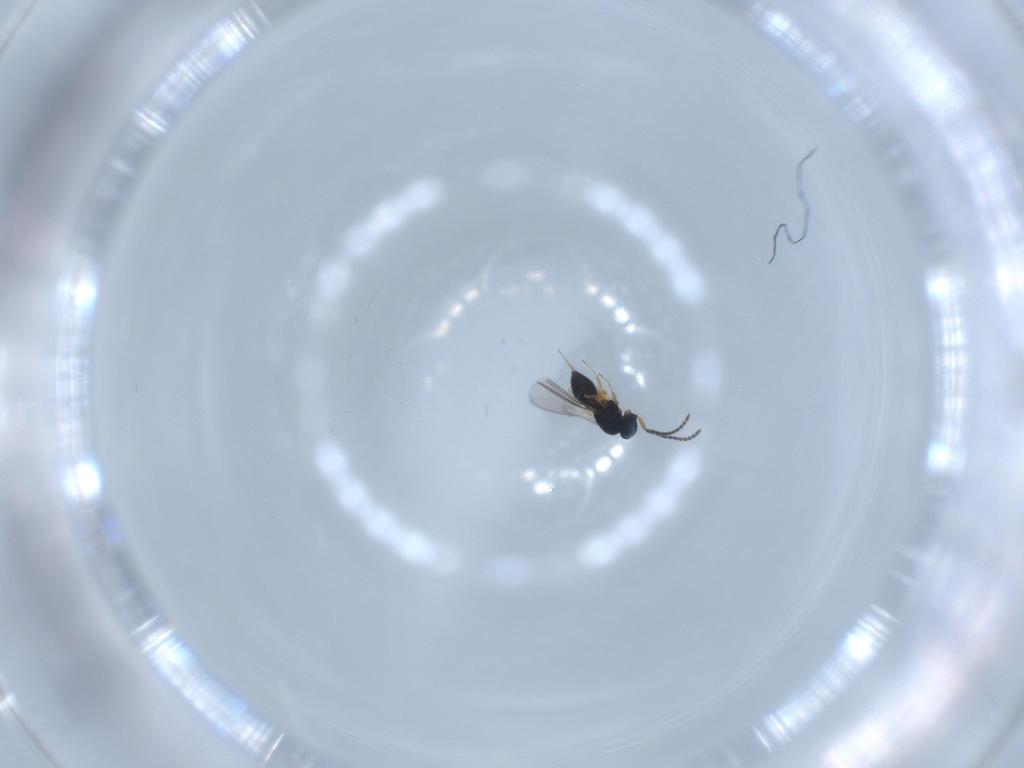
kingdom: Animalia
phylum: Arthropoda
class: Insecta
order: Hymenoptera
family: Scelionidae
